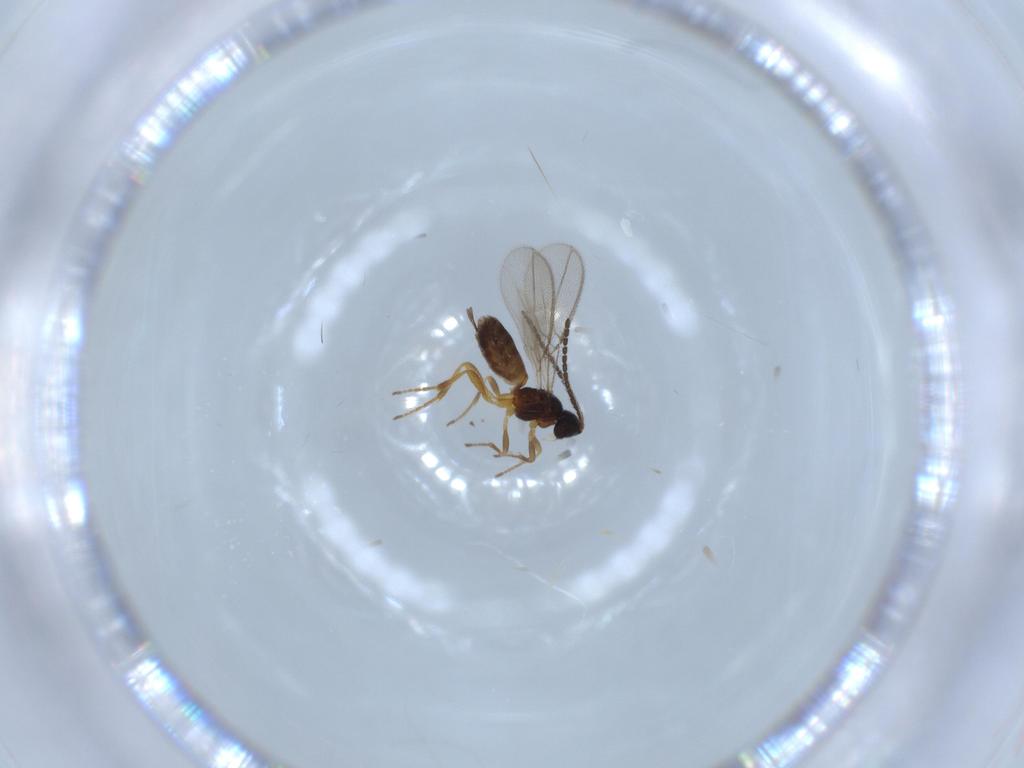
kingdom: Animalia
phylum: Arthropoda
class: Insecta
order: Hymenoptera
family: Braconidae
